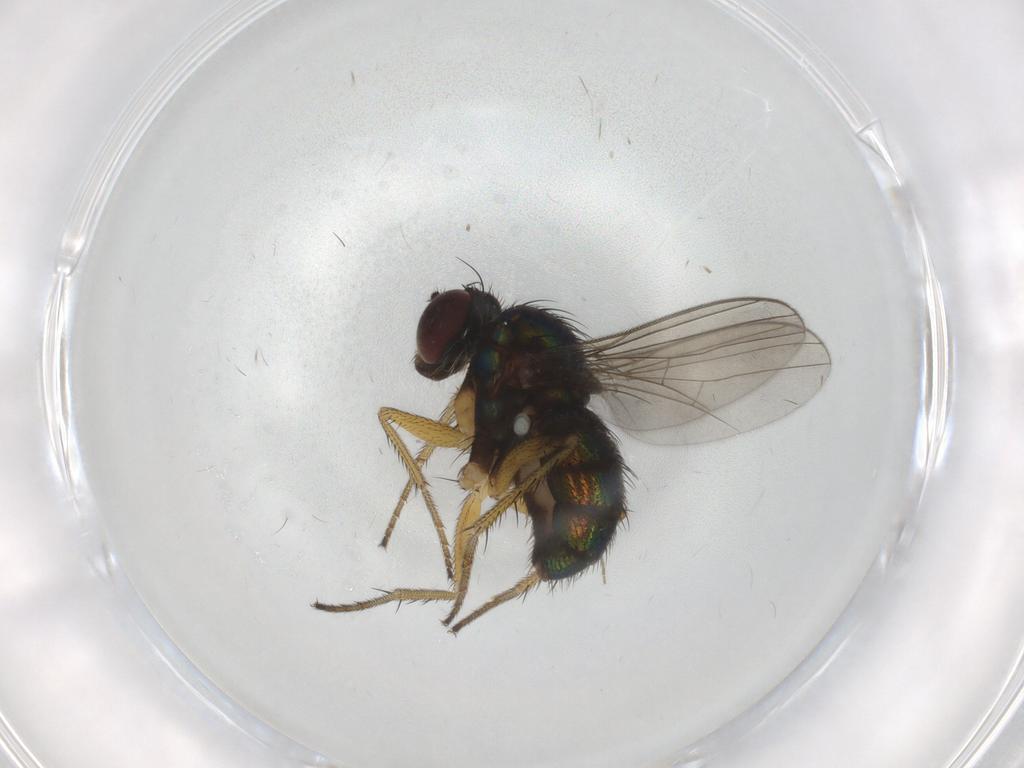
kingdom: Animalia
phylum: Arthropoda
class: Insecta
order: Diptera
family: Dolichopodidae
